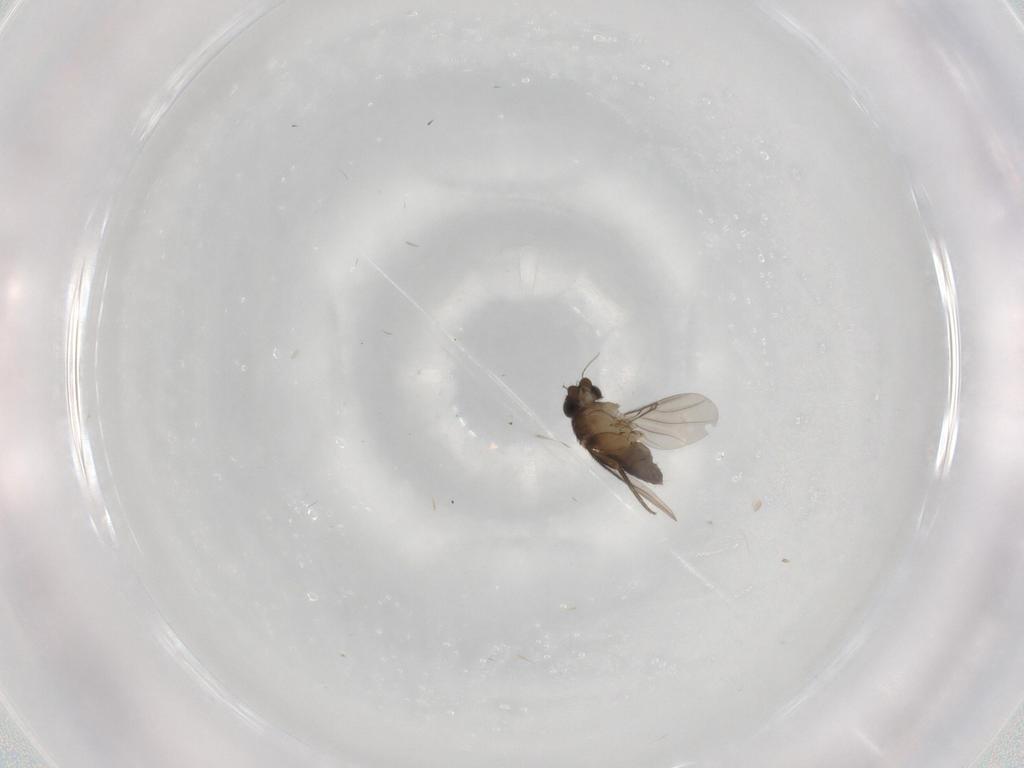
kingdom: Animalia
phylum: Arthropoda
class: Insecta
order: Diptera
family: Phoridae
